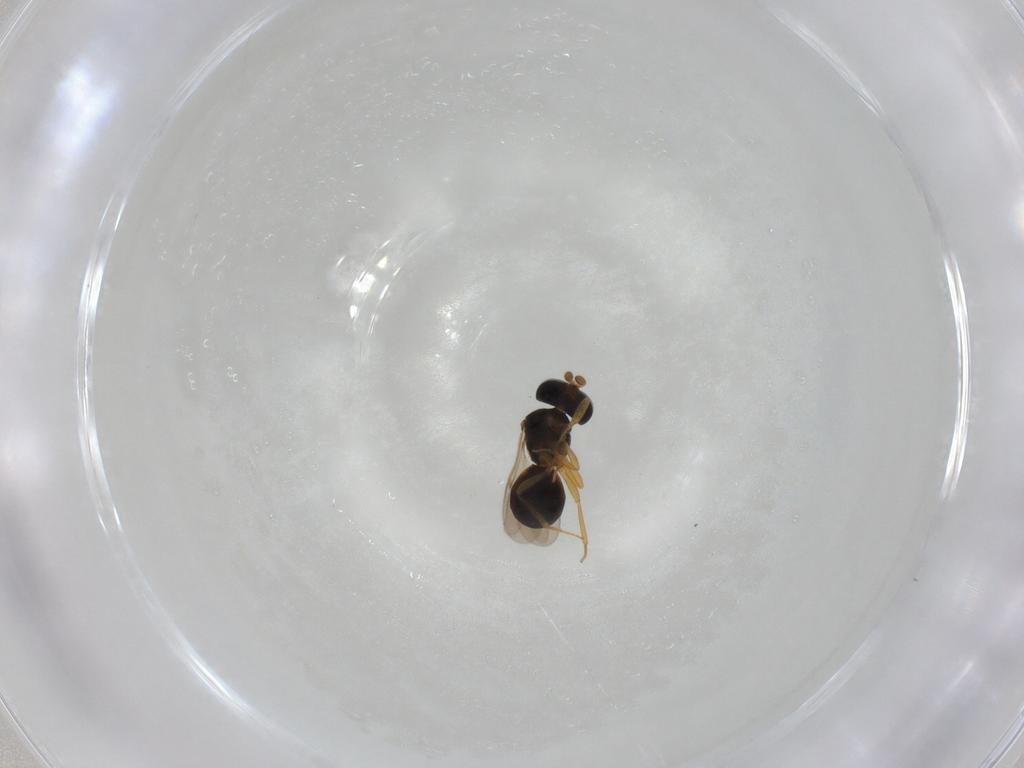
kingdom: Animalia
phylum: Arthropoda
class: Insecta
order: Hymenoptera
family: Scelionidae
